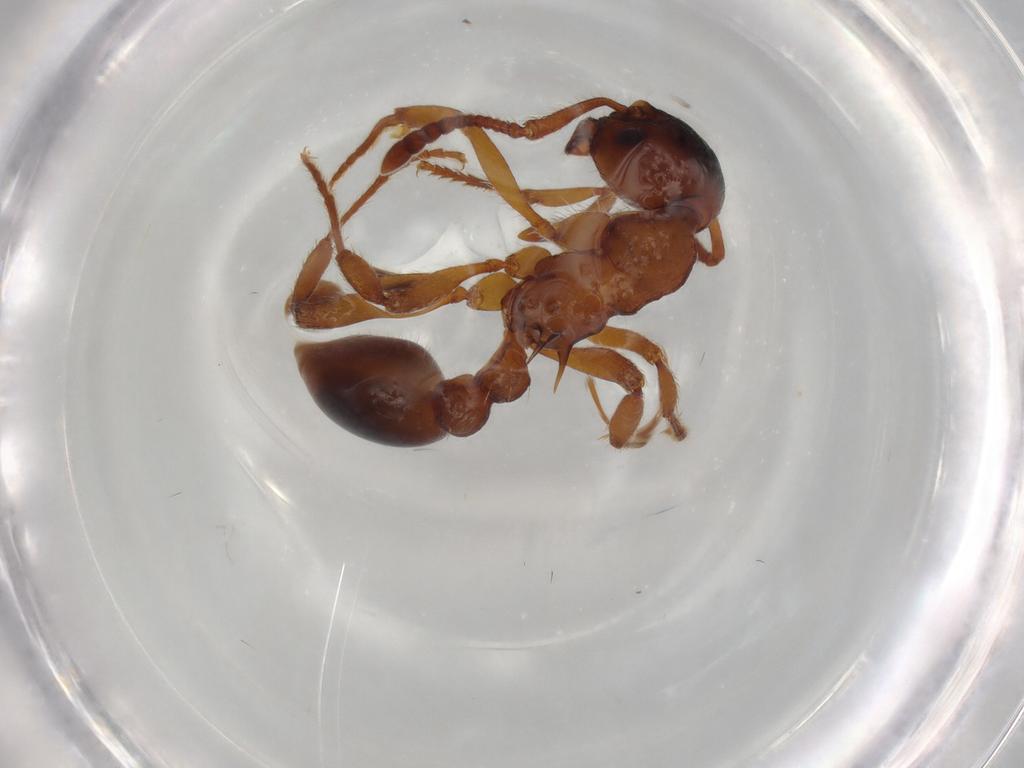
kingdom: Animalia
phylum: Arthropoda
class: Insecta
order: Hymenoptera
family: Formicidae
